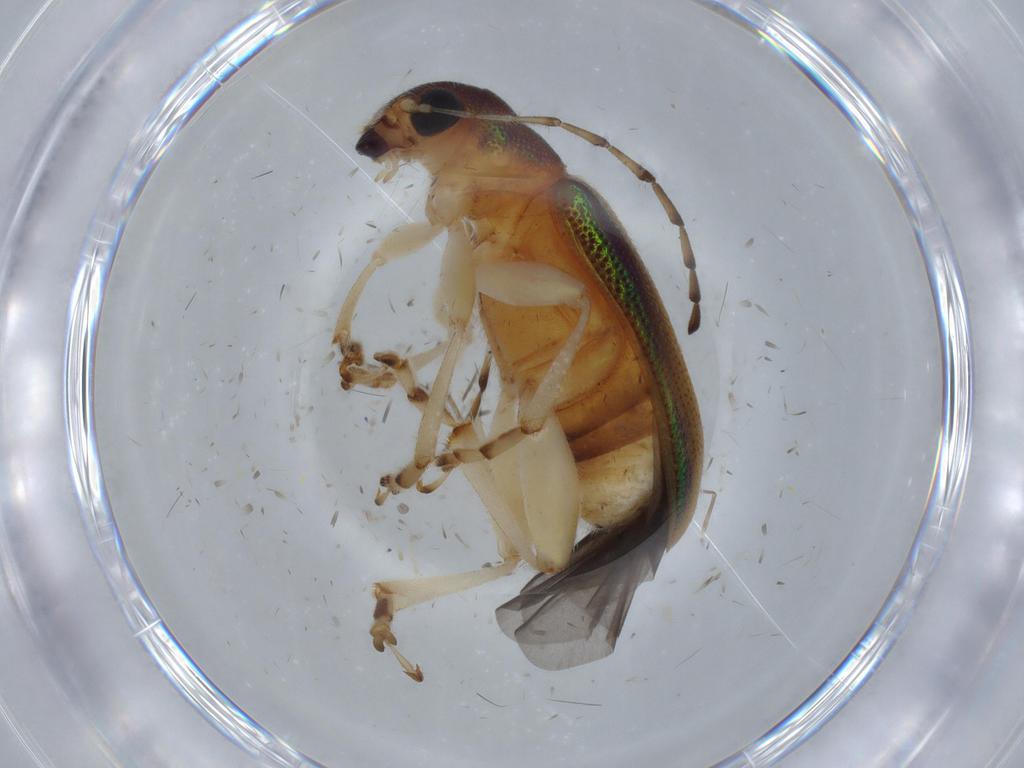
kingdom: Animalia
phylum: Arthropoda
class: Insecta
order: Coleoptera
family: Chrysomelidae
